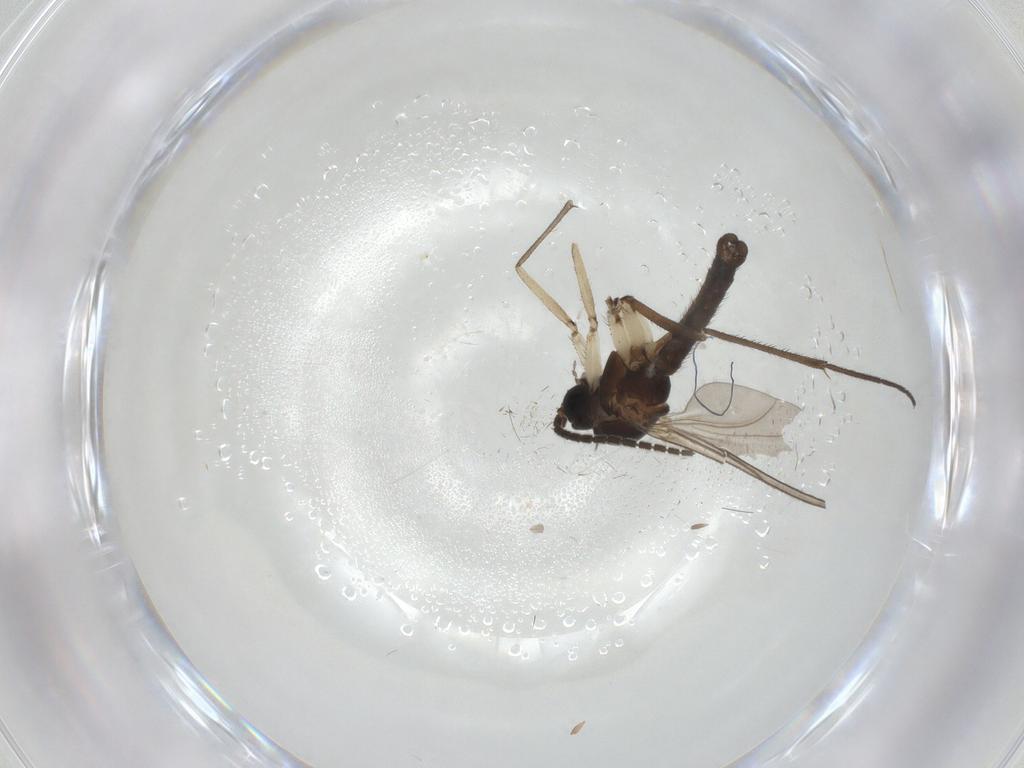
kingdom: Animalia
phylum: Arthropoda
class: Insecta
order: Diptera
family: Sciaridae
